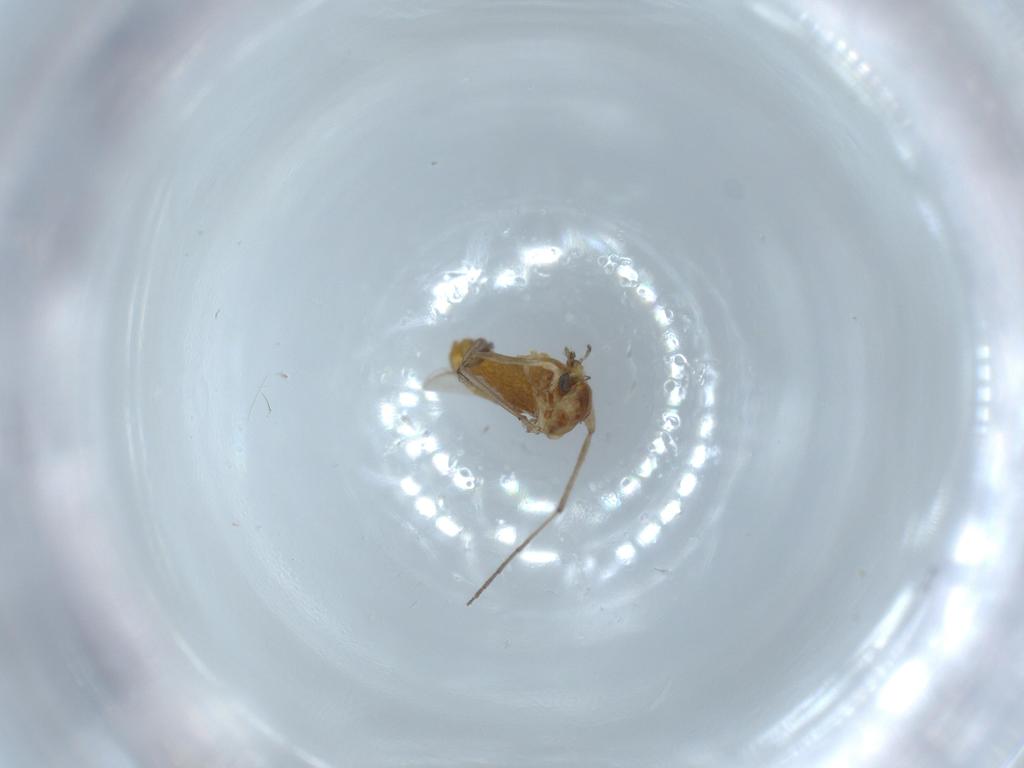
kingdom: Animalia
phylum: Arthropoda
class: Insecta
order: Diptera
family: Chironomidae
